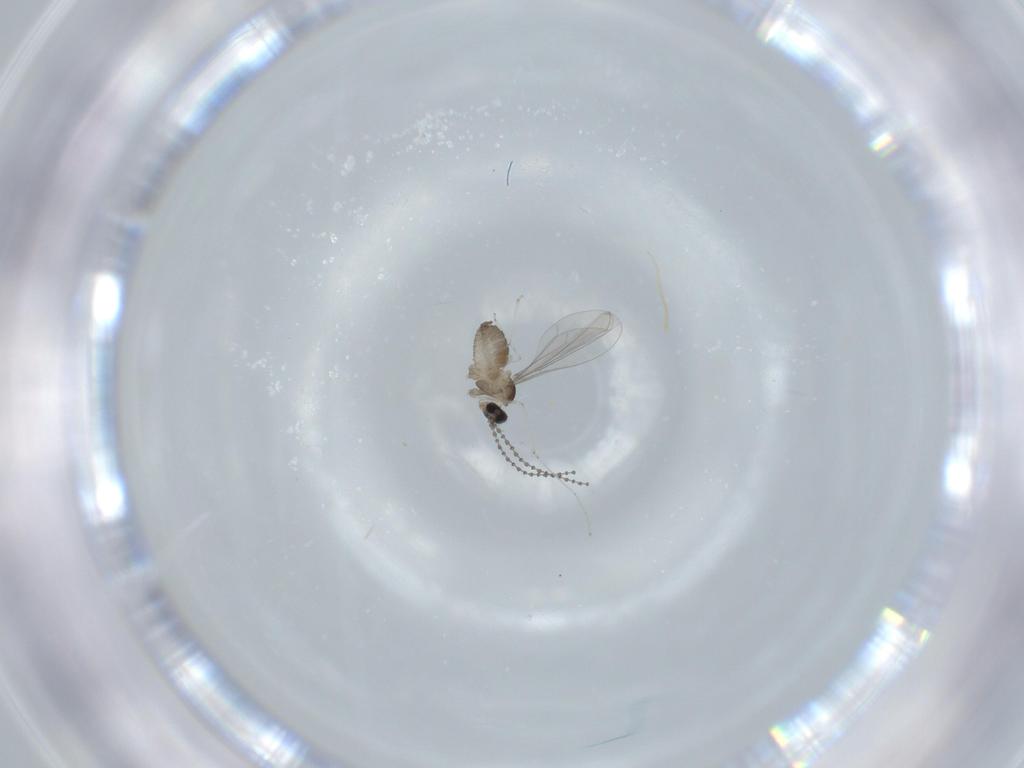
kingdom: Animalia
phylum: Arthropoda
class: Insecta
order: Diptera
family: Cecidomyiidae
